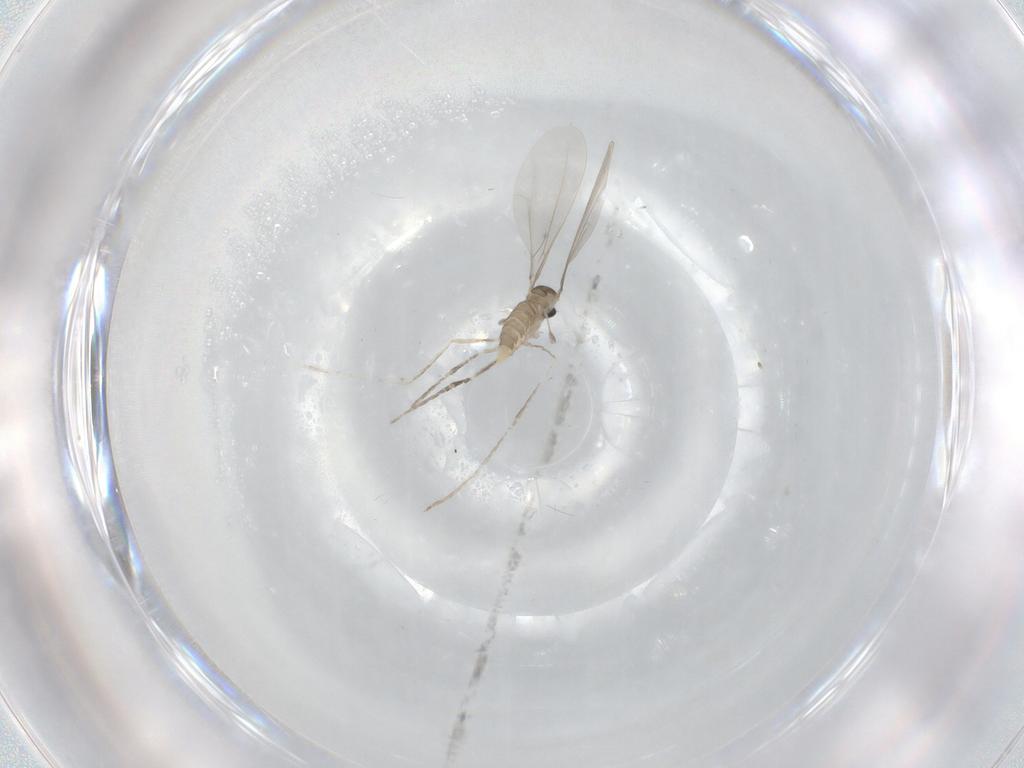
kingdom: Animalia
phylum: Arthropoda
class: Insecta
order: Diptera
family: Cecidomyiidae
